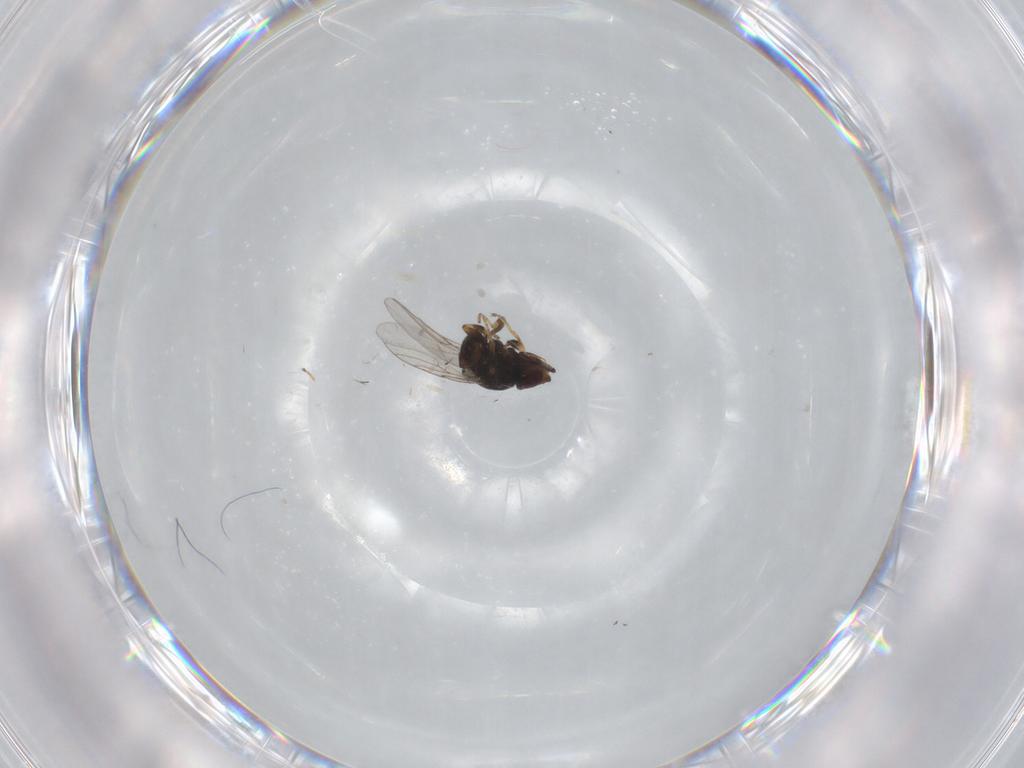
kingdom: Animalia
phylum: Arthropoda
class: Insecta
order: Diptera
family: Chloropidae
